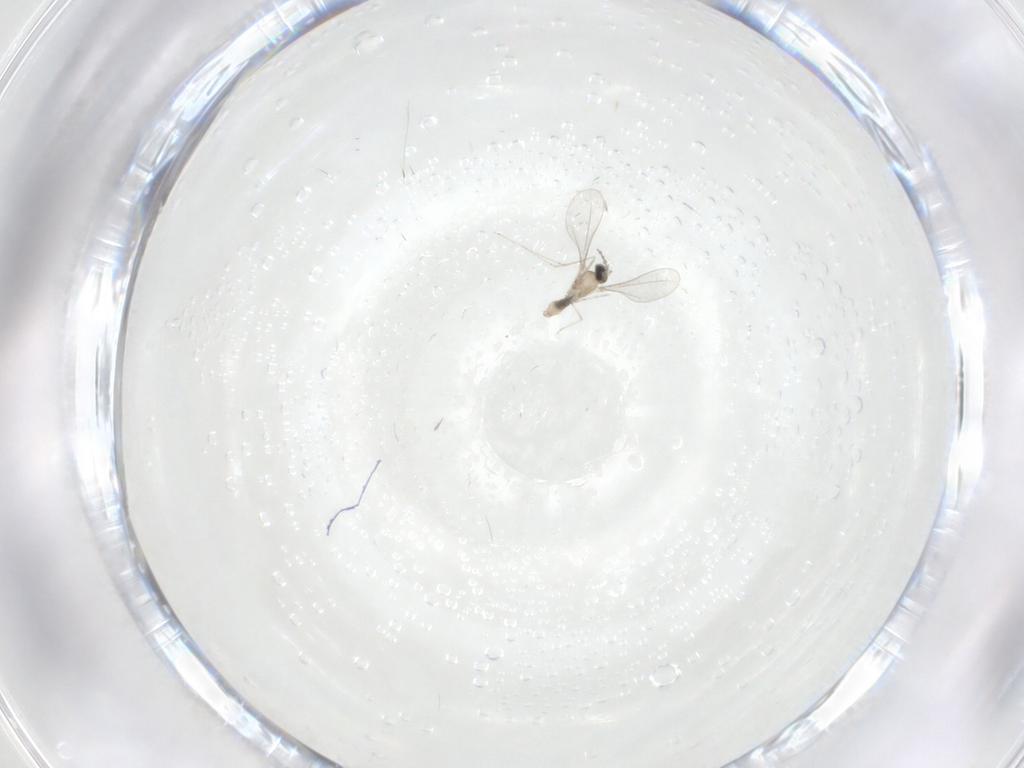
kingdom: Animalia
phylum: Arthropoda
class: Insecta
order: Diptera
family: Cecidomyiidae
